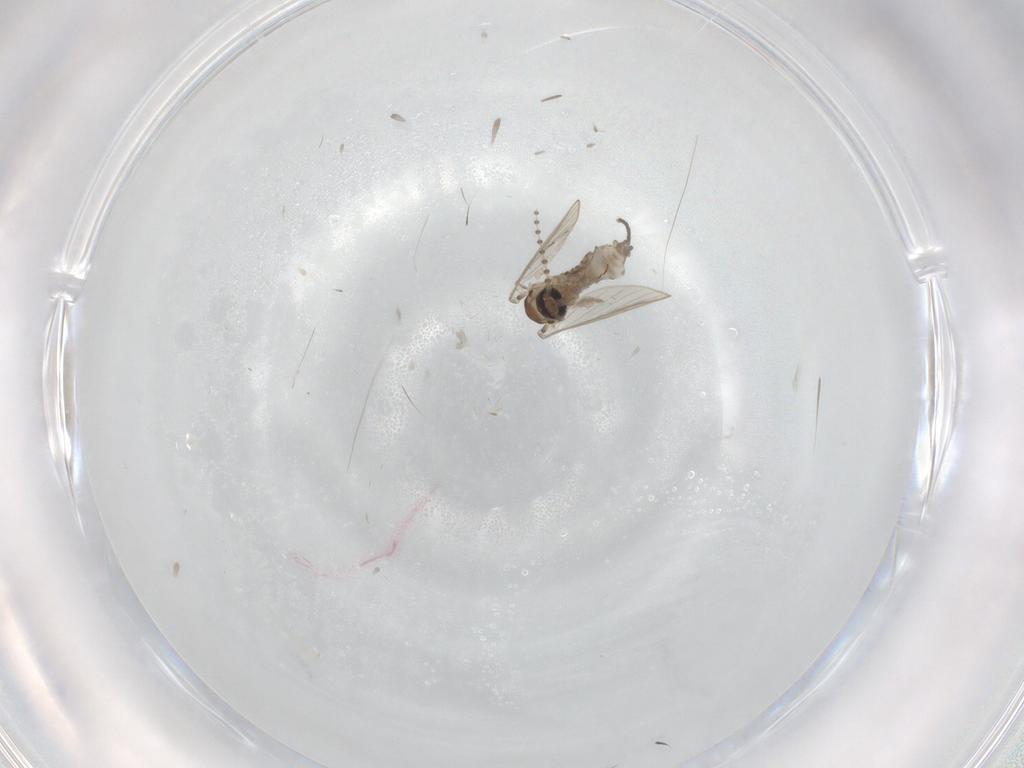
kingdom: Animalia
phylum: Arthropoda
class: Insecta
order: Diptera
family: Psychodidae
